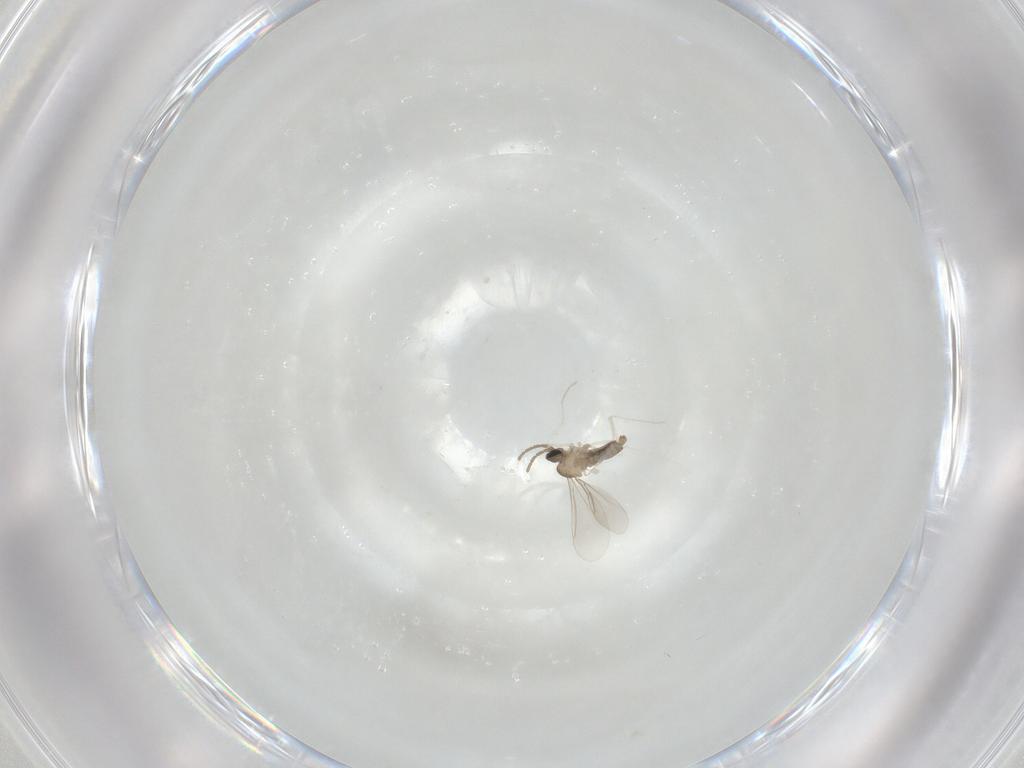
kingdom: Animalia
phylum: Arthropoda
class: Insecta
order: Diptera
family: Cecidomyiidae
